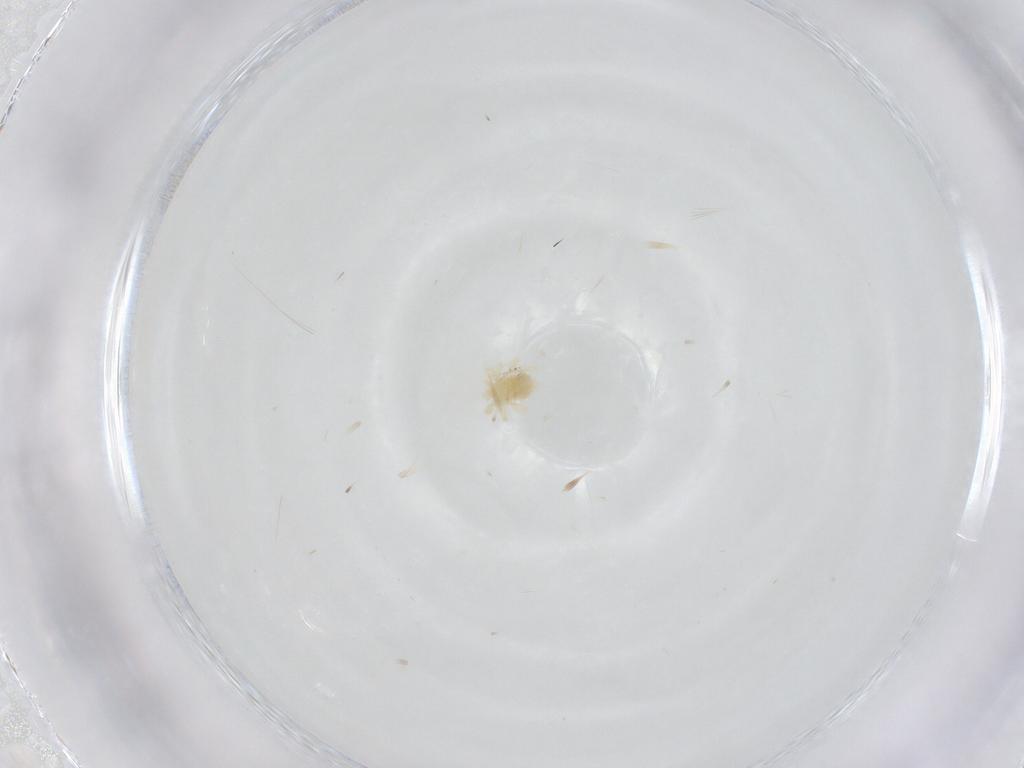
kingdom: Animalia
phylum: Arthropoda
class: Arachnida
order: Trombidiformes
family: Anystidae
